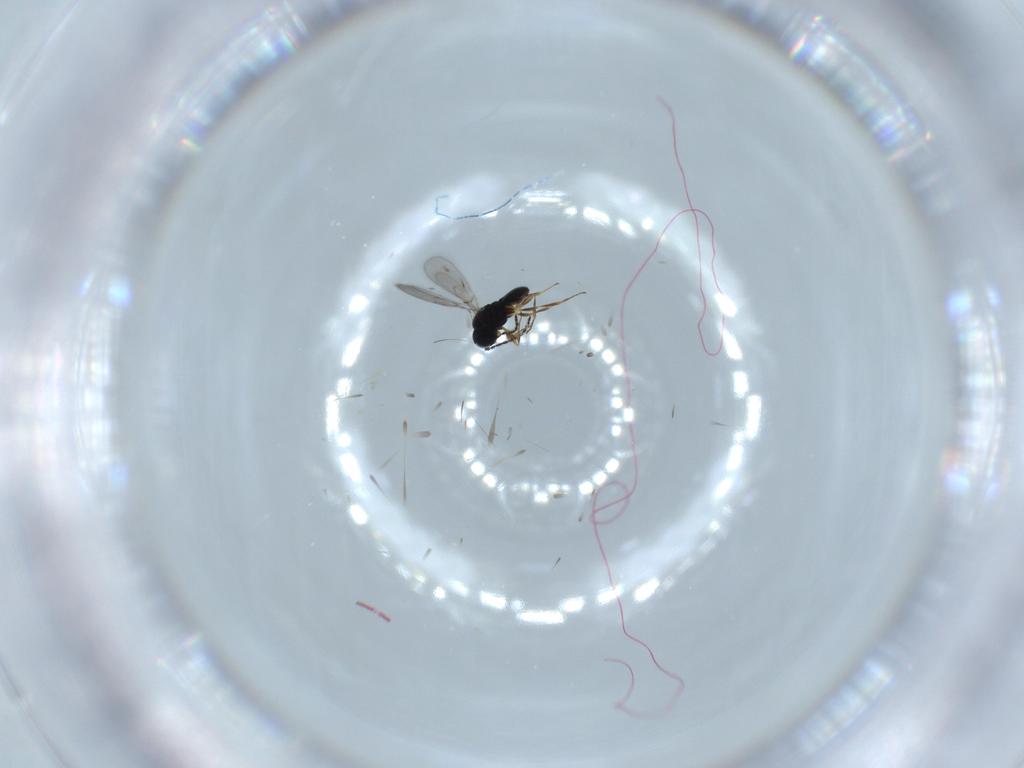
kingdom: Animalia
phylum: Arthropoda
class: Insecta
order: Hymenoptera
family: Scelionidae
